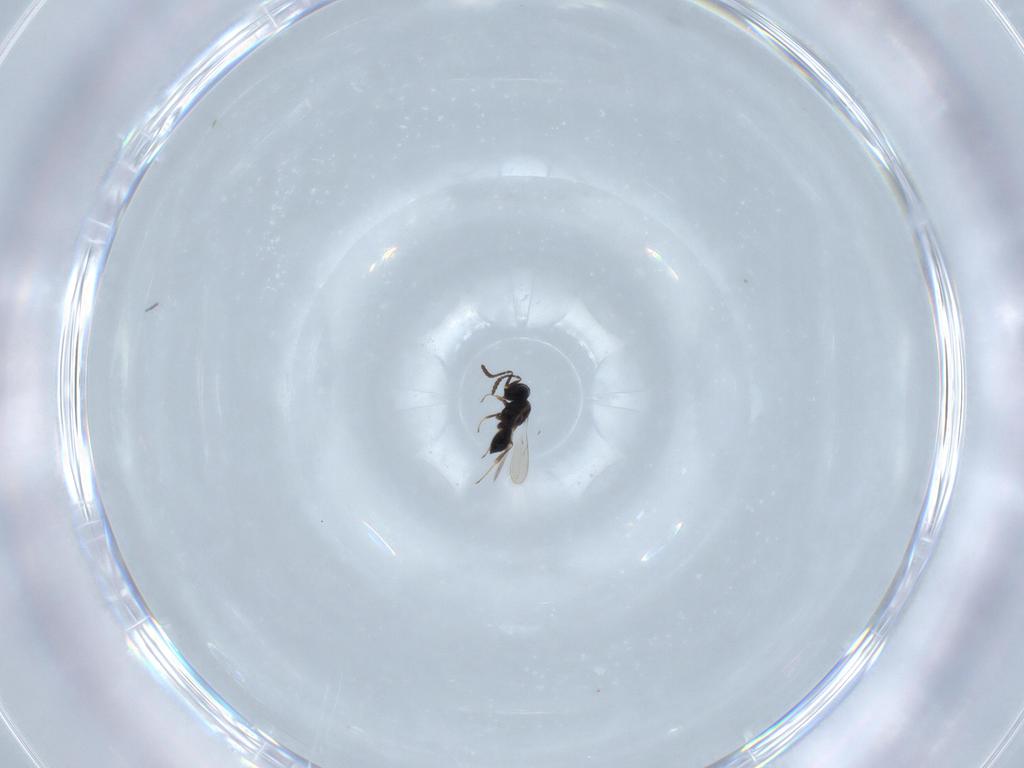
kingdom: Animalia
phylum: Arthropoda
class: Insecta
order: Hymenoptera
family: Scelionidae
